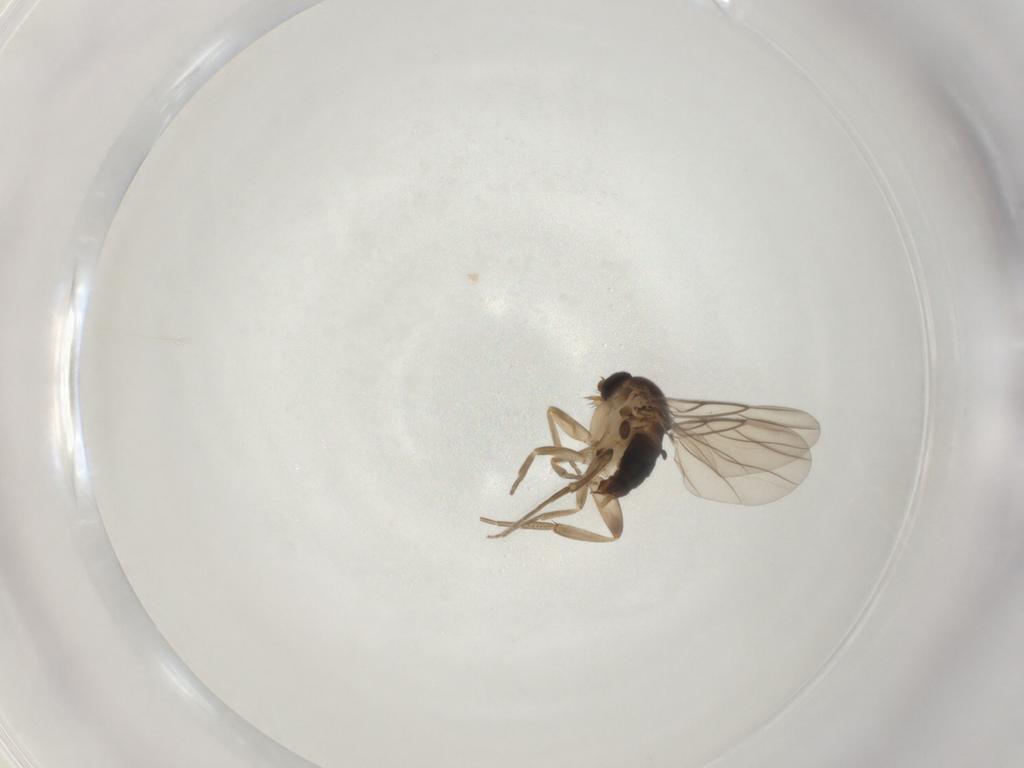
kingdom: Animalia
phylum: Arthropoda
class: Insecta
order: Diptera
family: Phoridae
